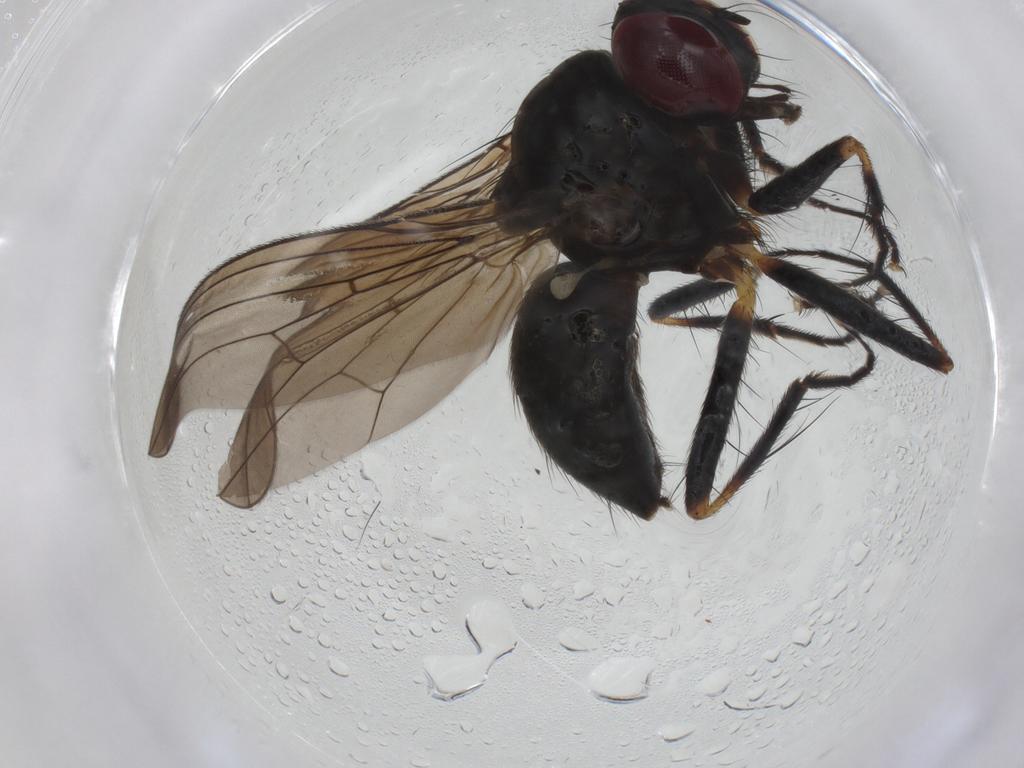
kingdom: Animalia
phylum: Arthropoda
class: Insecta
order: Diptera
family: Anthomyiidae
